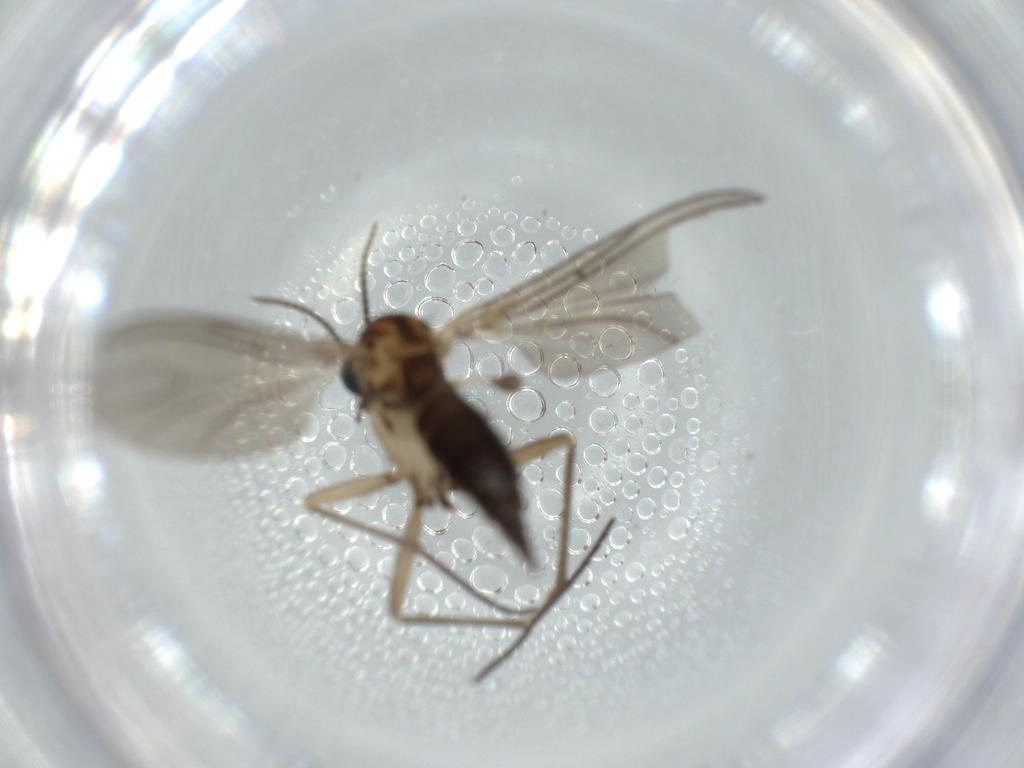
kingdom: Animalia
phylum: Arthropoda
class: Insecta
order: Diptera
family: Sciaridae
